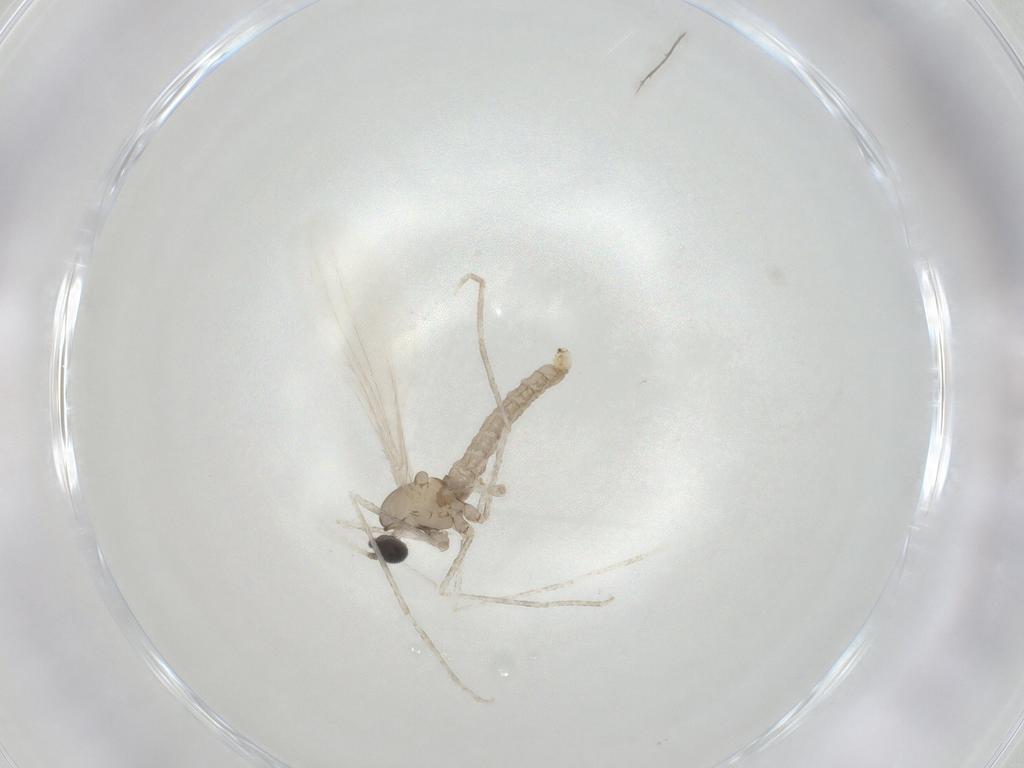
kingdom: Animalia
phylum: Arthropoda
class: Insecta
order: Diptera
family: Cecidomyiidae
